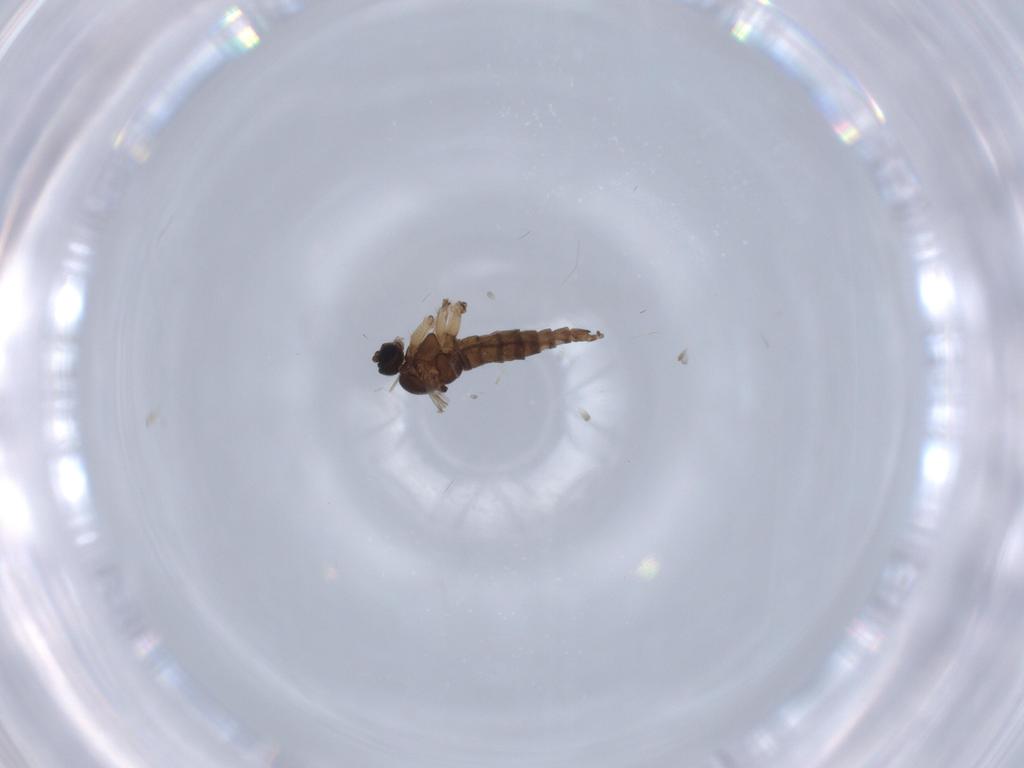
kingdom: Animalia
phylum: Arthropoda
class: Insecta
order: Diptera
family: Sciaridae
